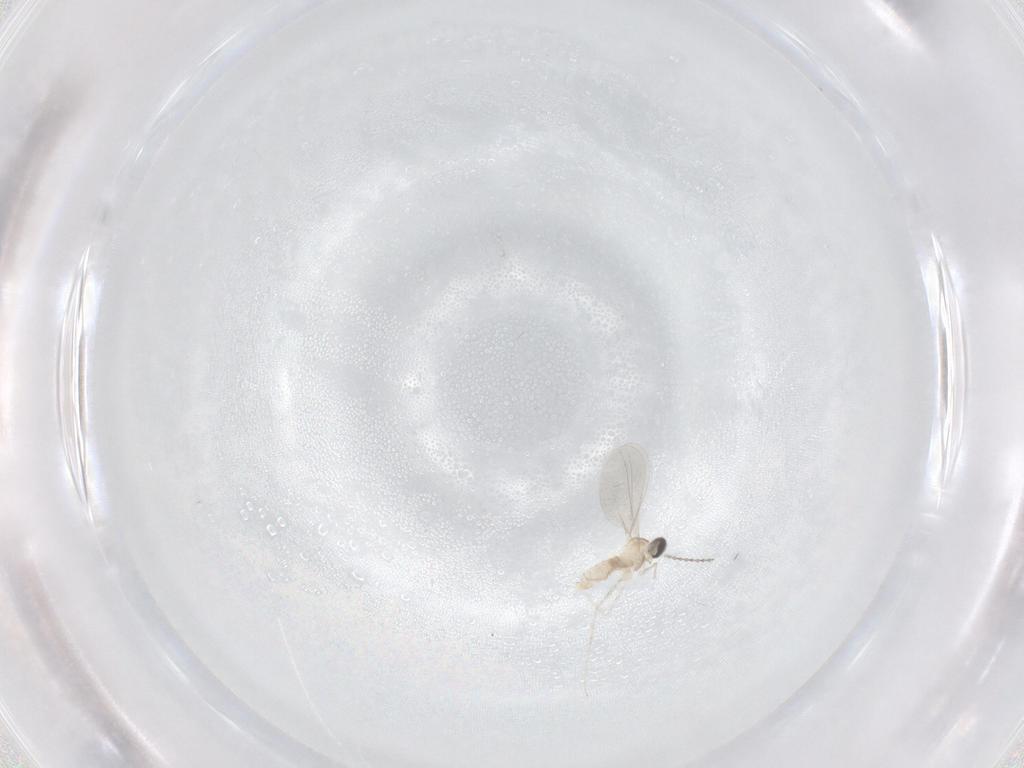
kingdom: Animalia
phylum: Arthropoda
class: Insecta
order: Diptera
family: Cecidomyiidae
